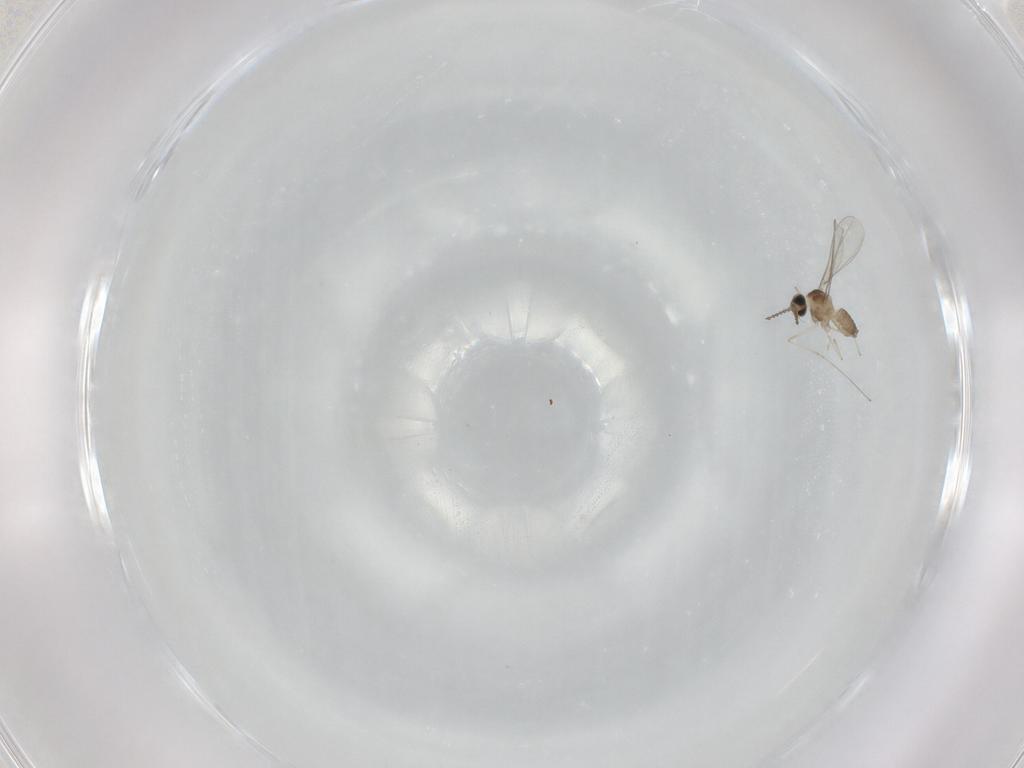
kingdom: Animalia
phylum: Arthropoda
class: Insecta
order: Diptera
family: Cecidomyiidae
